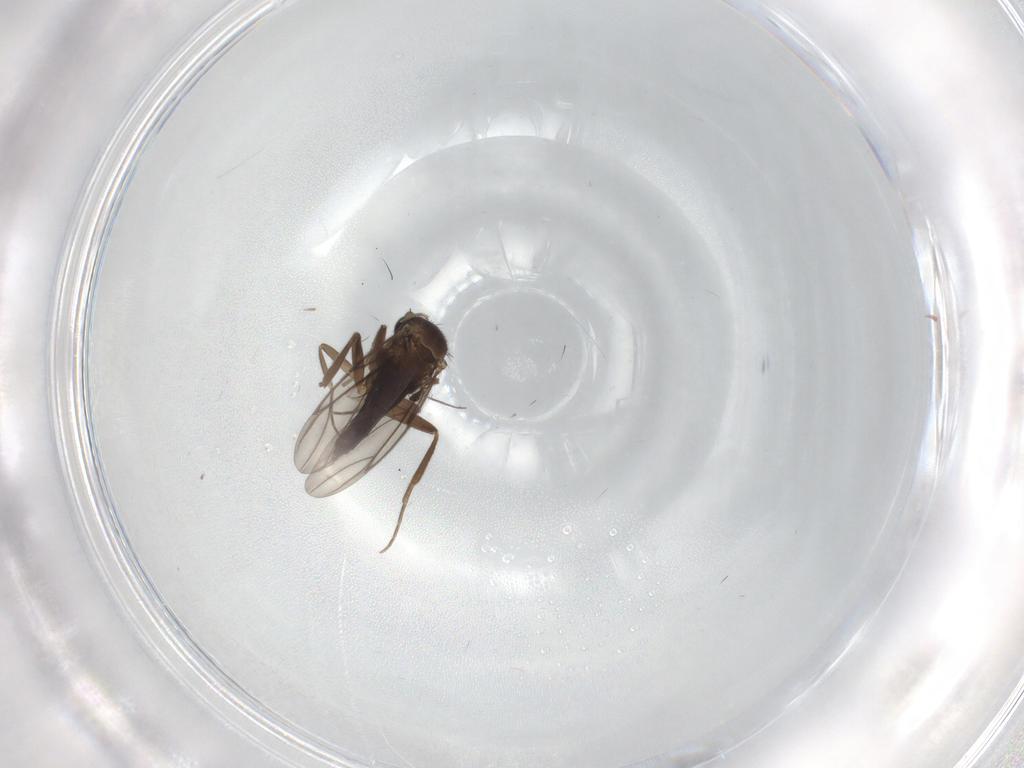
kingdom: Animalia
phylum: Arthropoda
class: Insecta
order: Diptera
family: Phoridae
